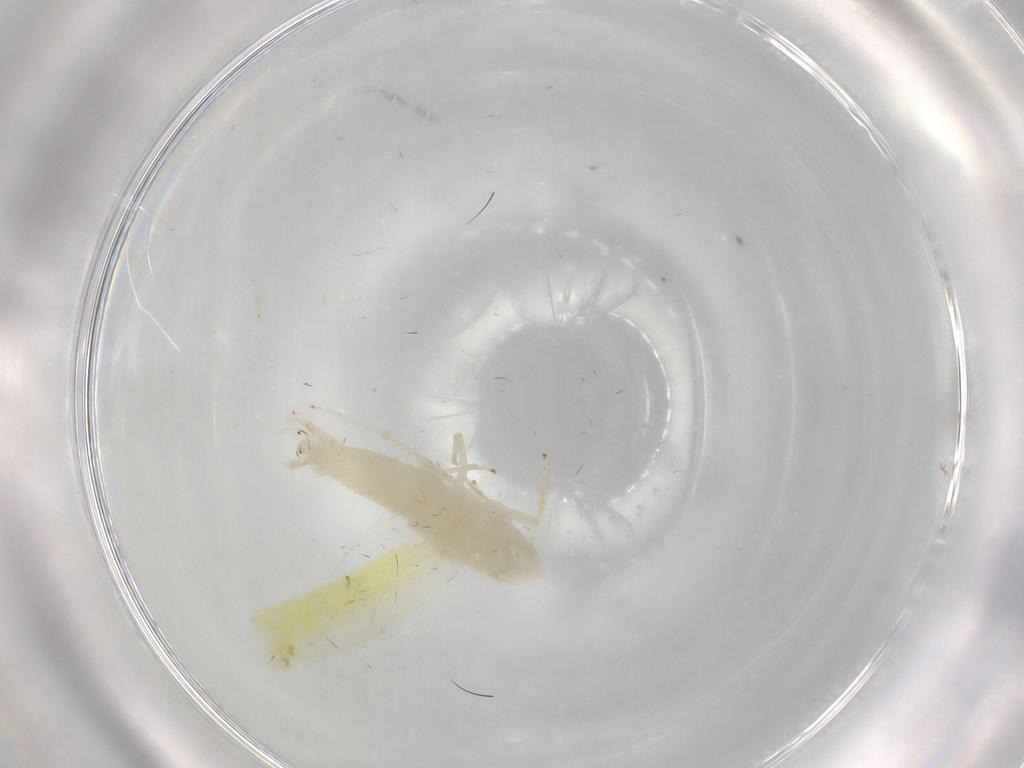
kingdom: Animalia
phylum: Arthropoda
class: Insecta
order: Hemiptera
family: Cicadellidae
